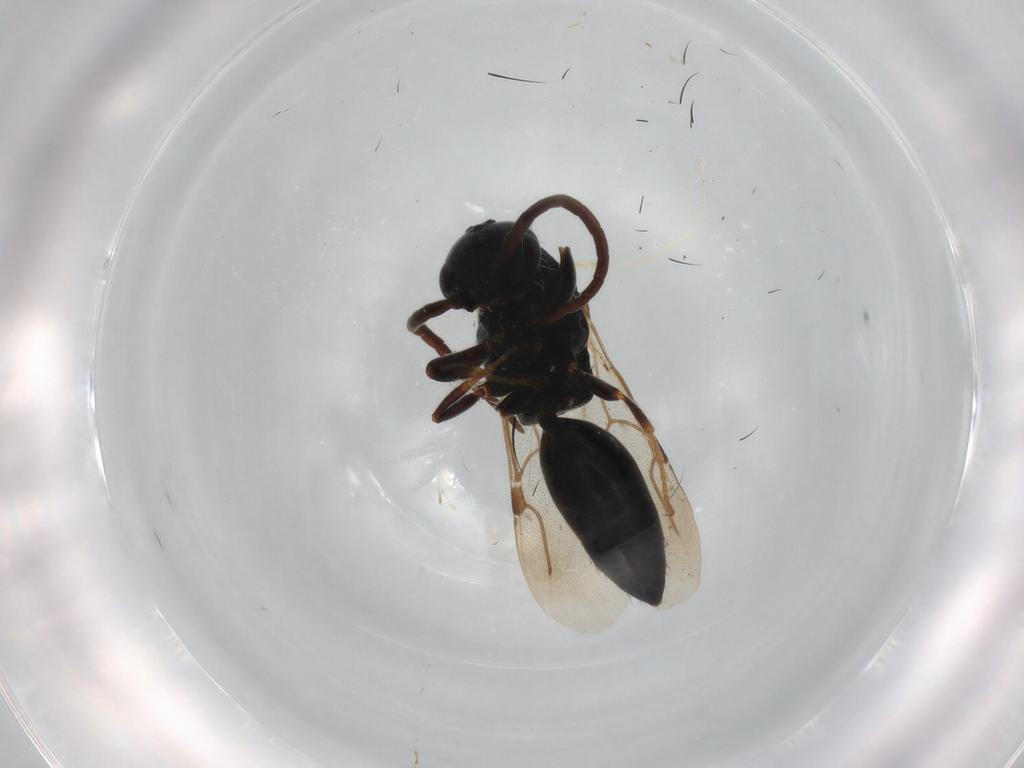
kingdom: Animalia
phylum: Arthropoda
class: Insecta
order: Hymenoptera
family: Bethylidae
